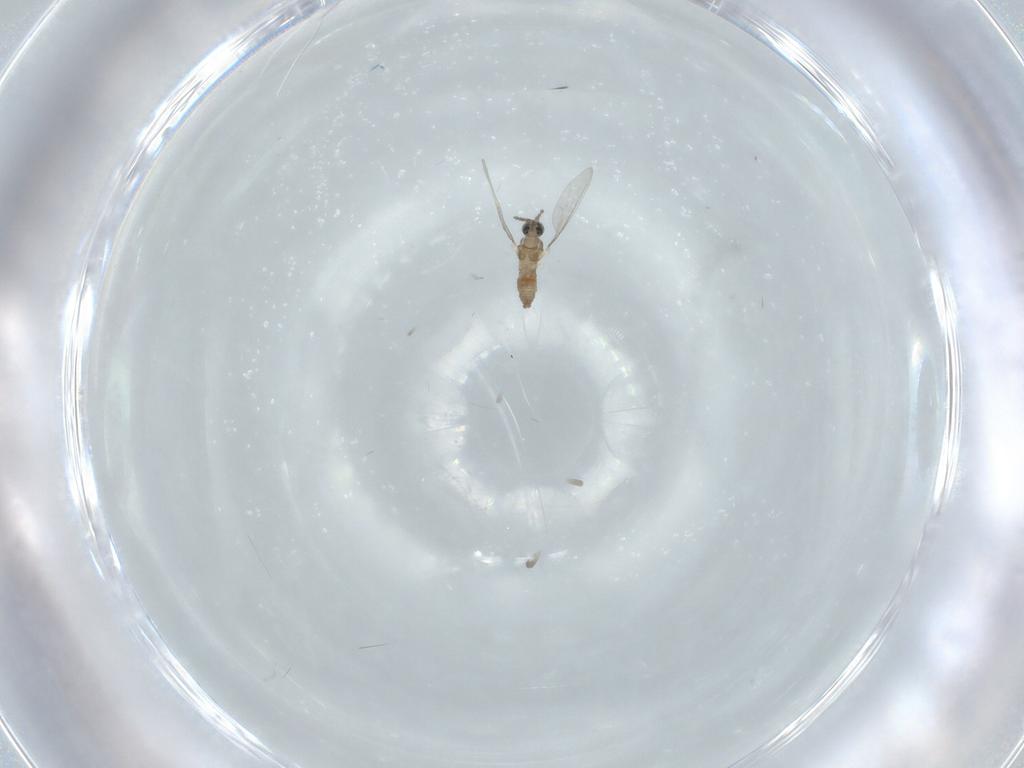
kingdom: Animalia
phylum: Arthropoda
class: Insecta
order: Diptera
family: Cecidomyiidae
